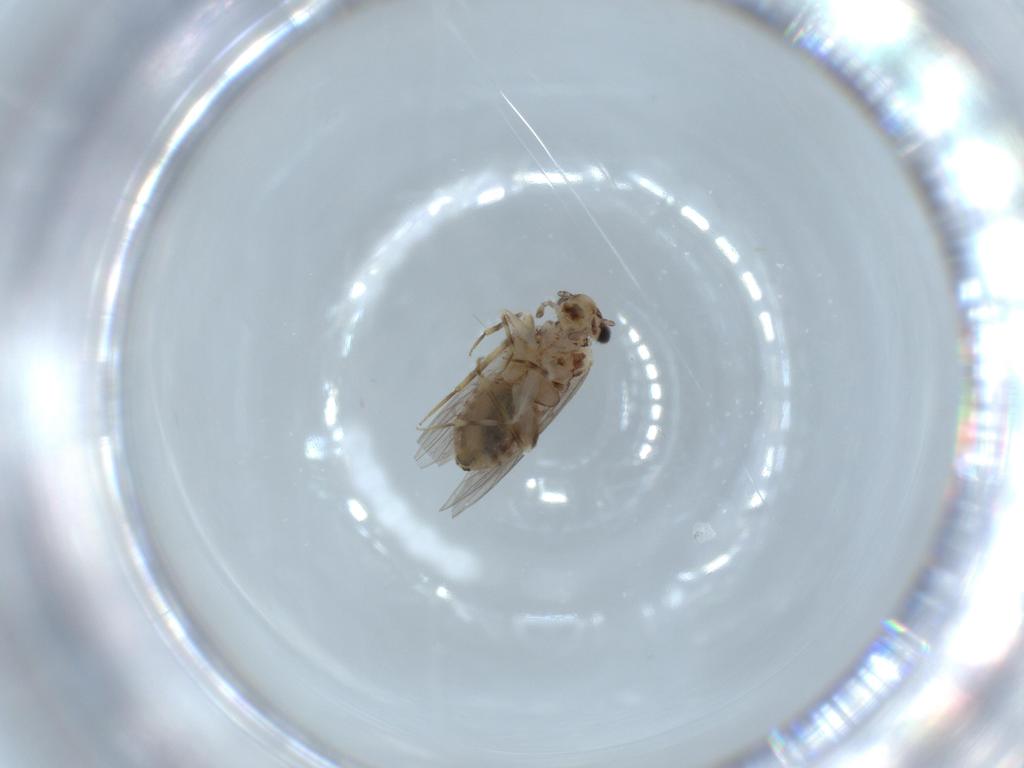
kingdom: Animalia
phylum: Arthropoda
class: Insecta
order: Psocodea
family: Lepidopsocidae
